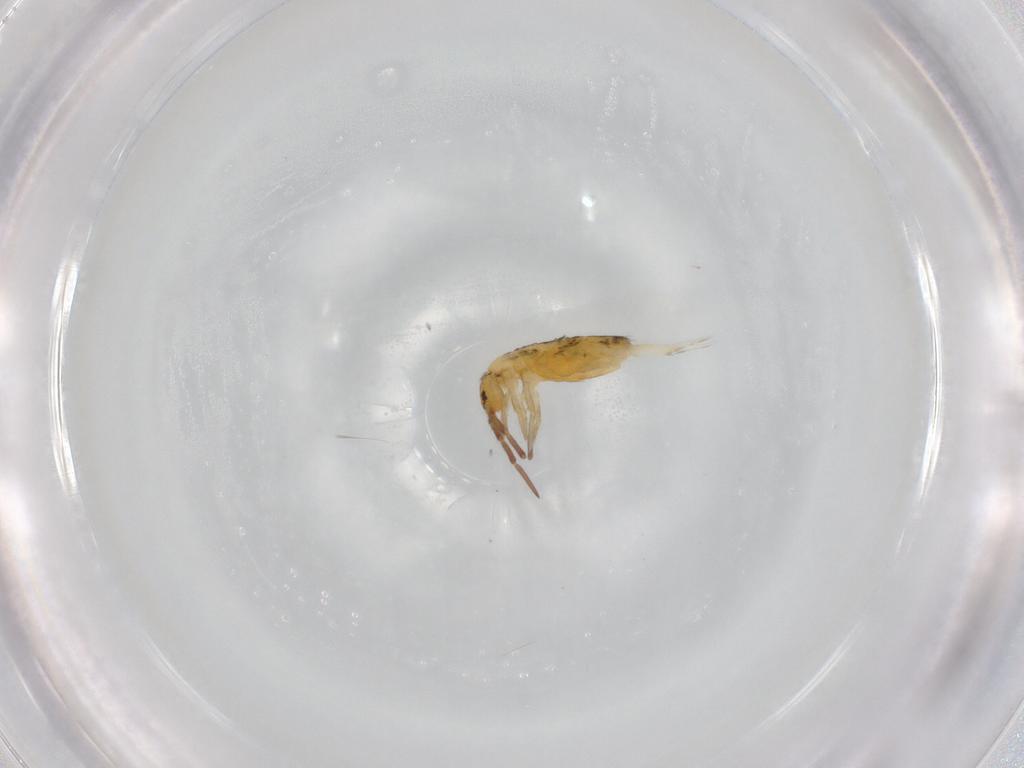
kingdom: Animalia
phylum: Arthropoda
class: Collembola
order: Entomobryomorpha
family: Entomobryidae
